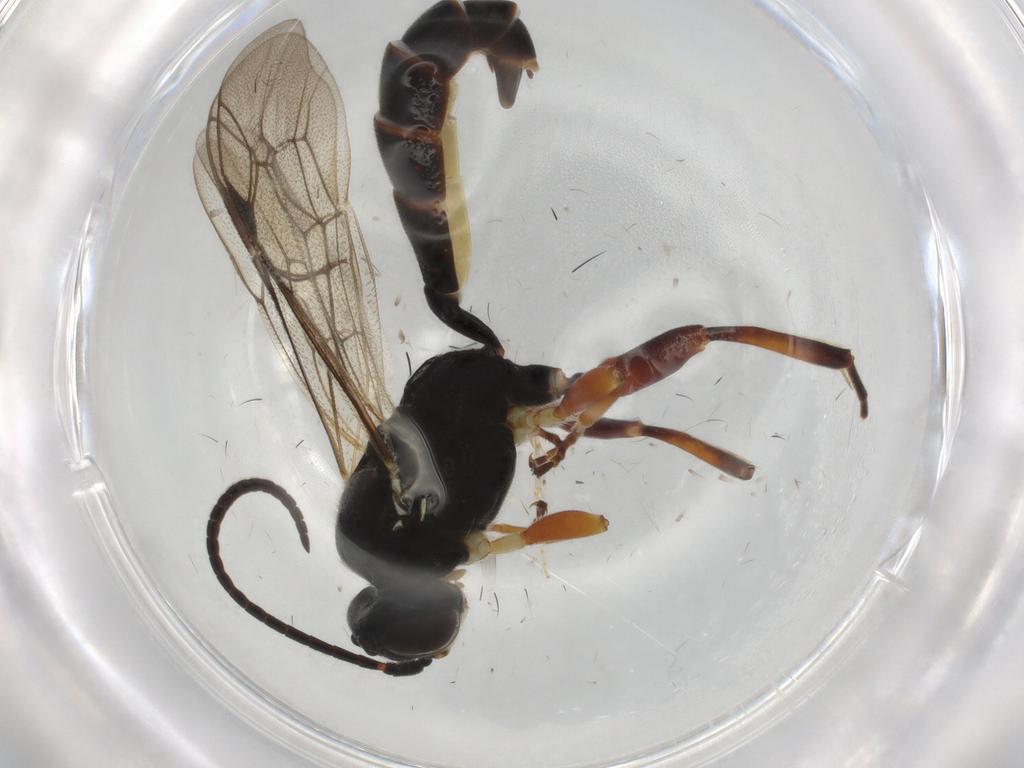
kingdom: Animalia
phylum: Arthropoda
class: Insecta
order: Hymenoptera
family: Ichneumonidae
